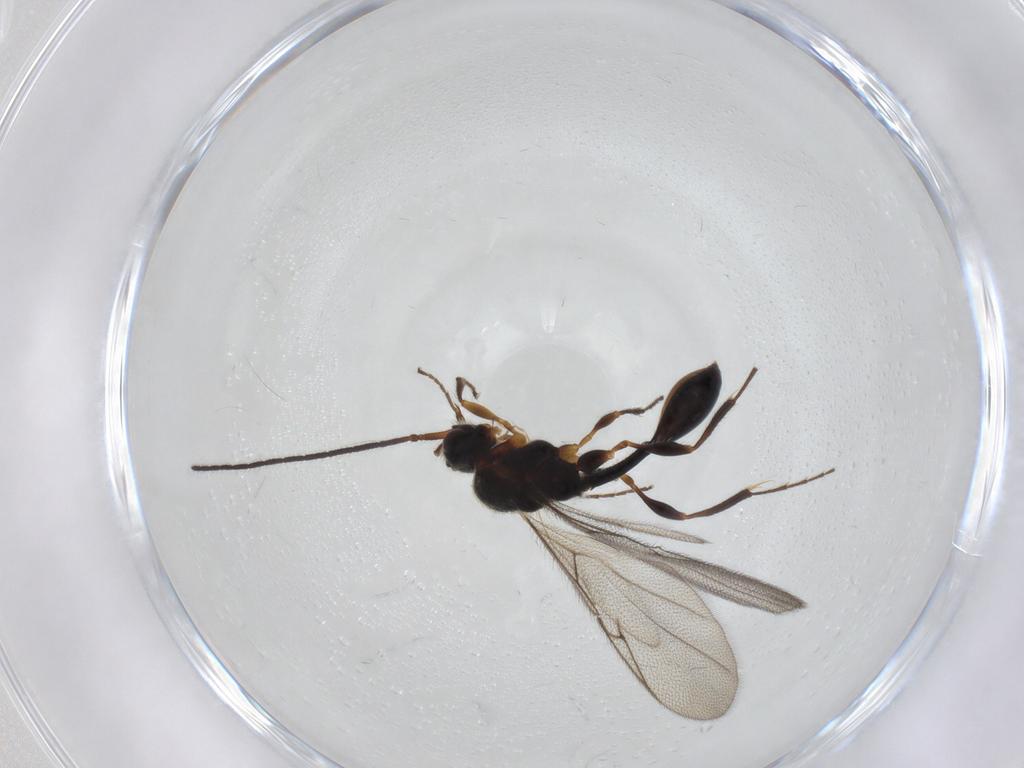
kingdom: Animalia
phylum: Arthropoda
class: Insecta
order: Hymenoptera
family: Diapriidae
